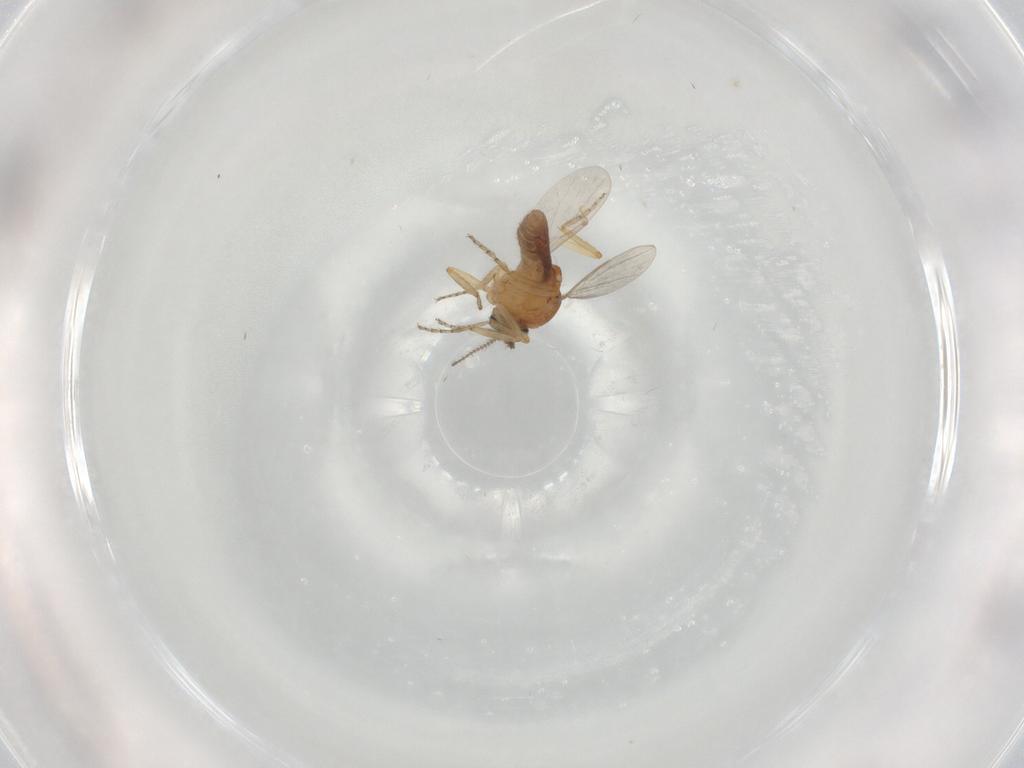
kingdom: Animalia
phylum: Arthropoda
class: Insecta
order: Diptera
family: Ceratopogonidae
